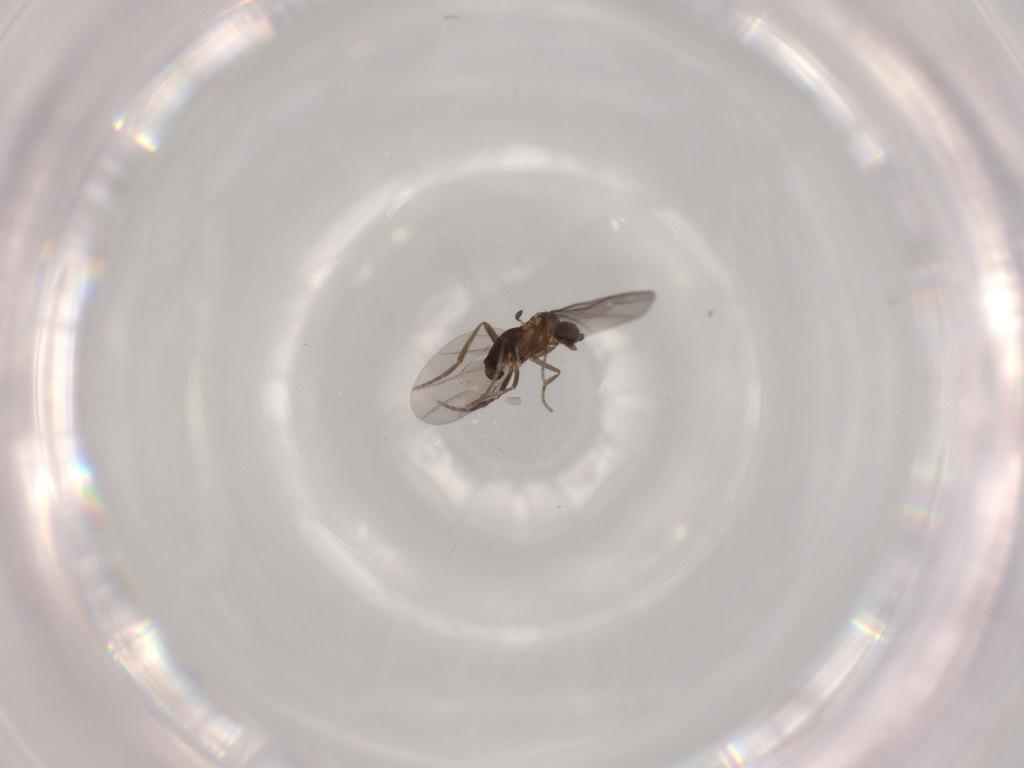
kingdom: Animalia
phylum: Arthropoda
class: Insecta
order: Diptera
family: Phoridae
